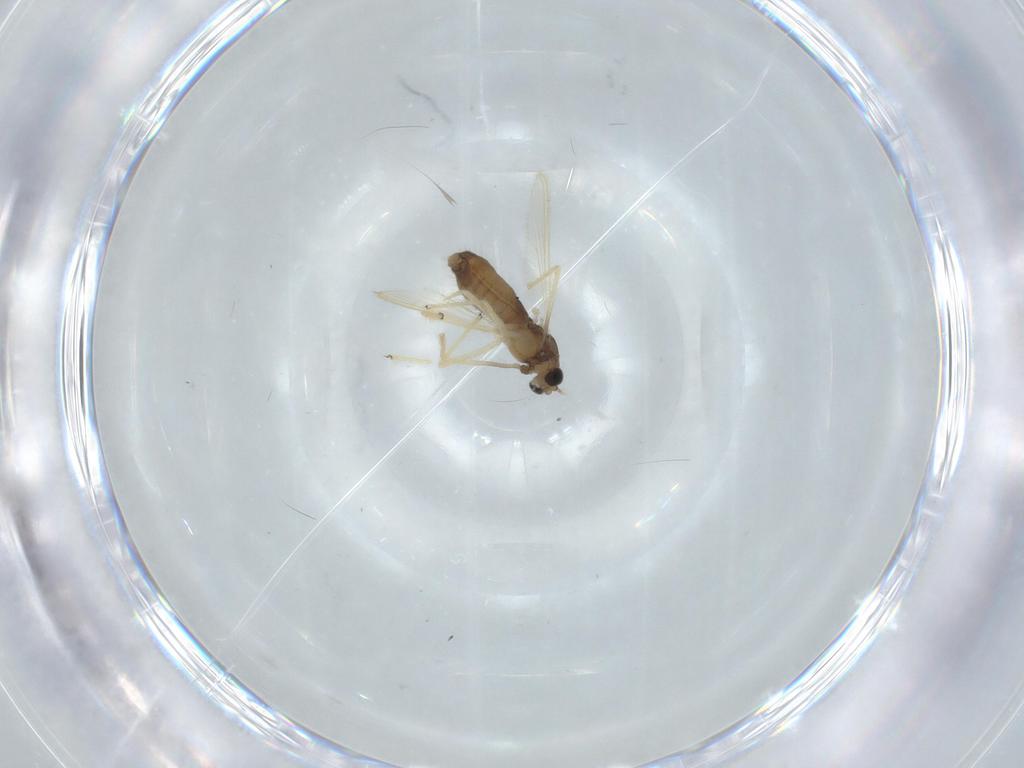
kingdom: Animalia
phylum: Arthropoda
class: Insecta
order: Diptera
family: Chironomidae
